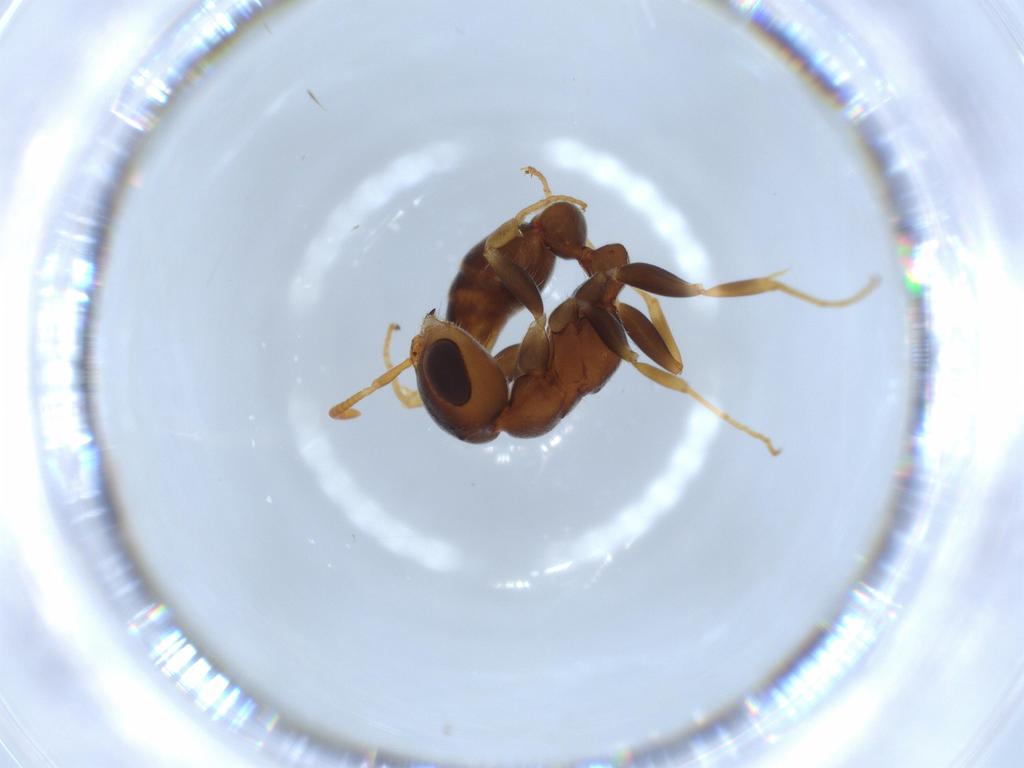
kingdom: Animalia
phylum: Arthropoda
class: Insecta
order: Hymenoptera
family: Formicidae
